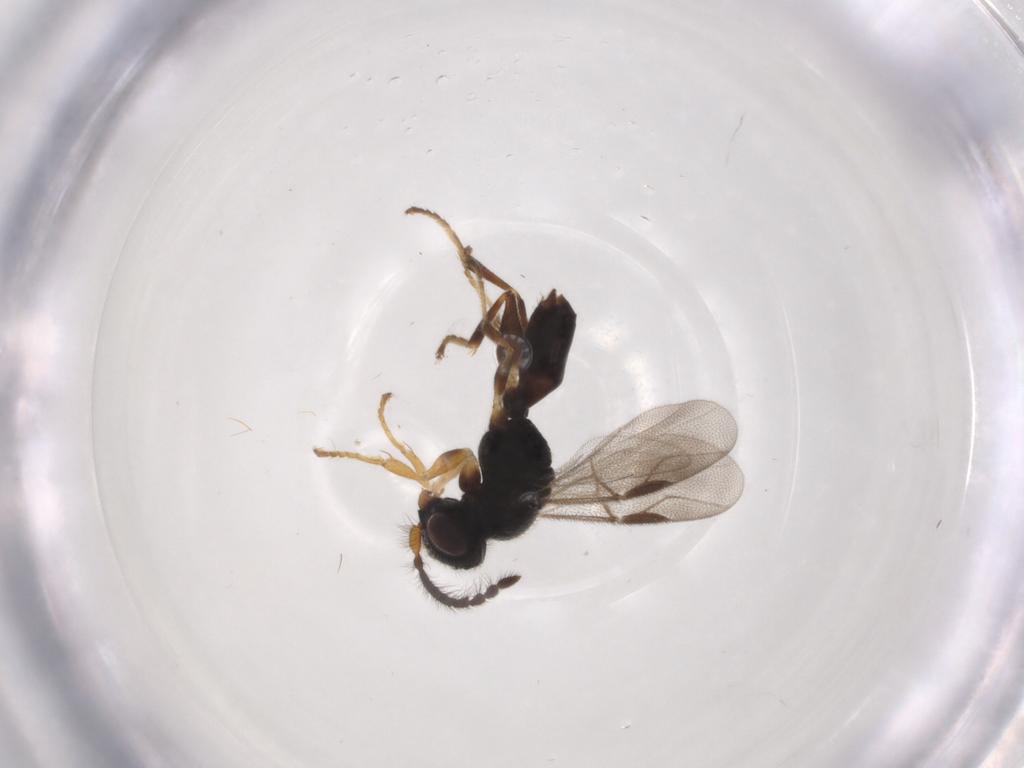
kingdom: Animalia
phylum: Arthropoda
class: Insecta
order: Hymenoptera
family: Dryinidae
